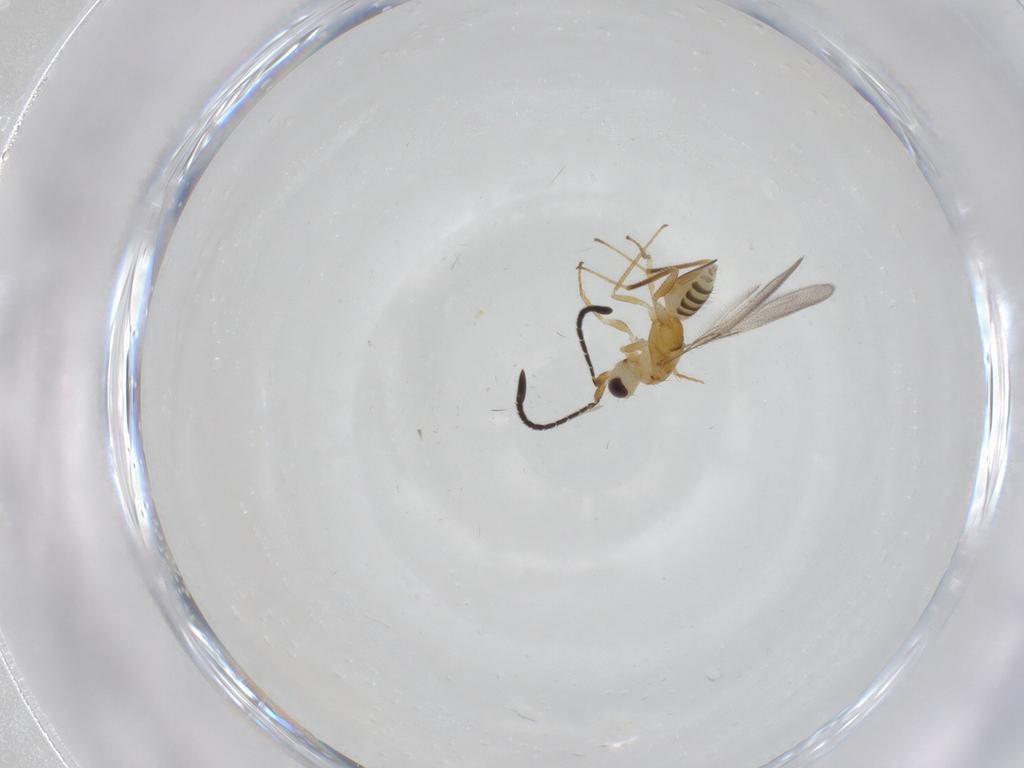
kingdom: Animalia
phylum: Arthropoda
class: Insecta
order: Hymenoptera
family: Mymaridae
